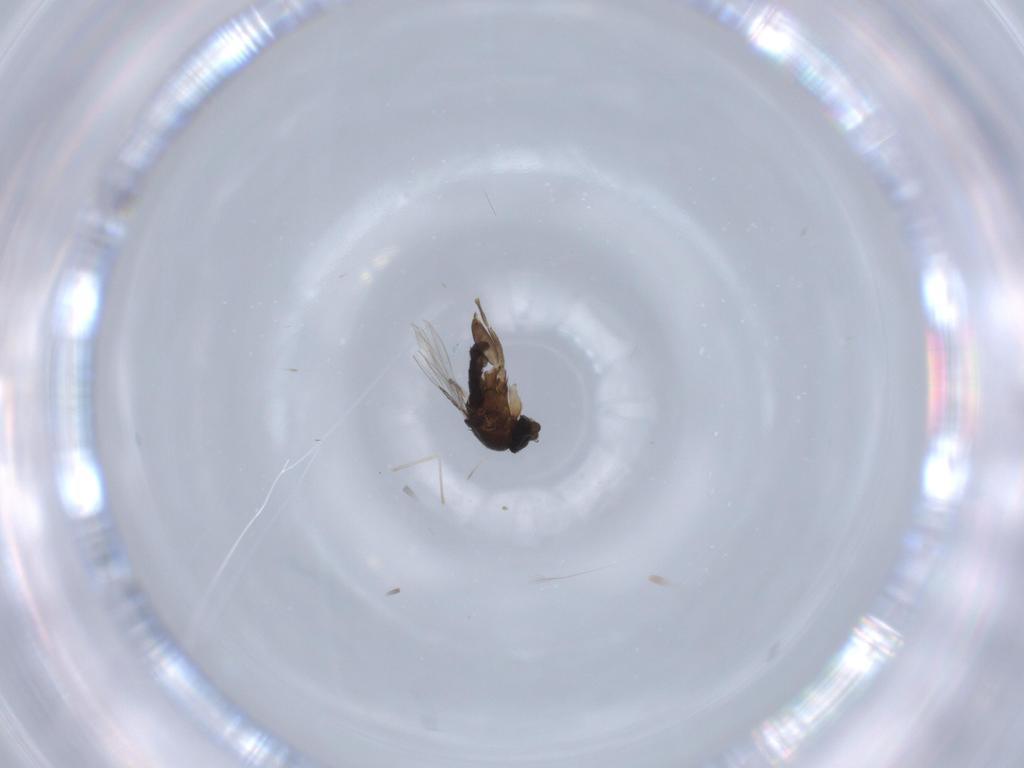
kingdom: Animalia
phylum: Arthropoda
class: Insecta
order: Diptera
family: Phoridae
